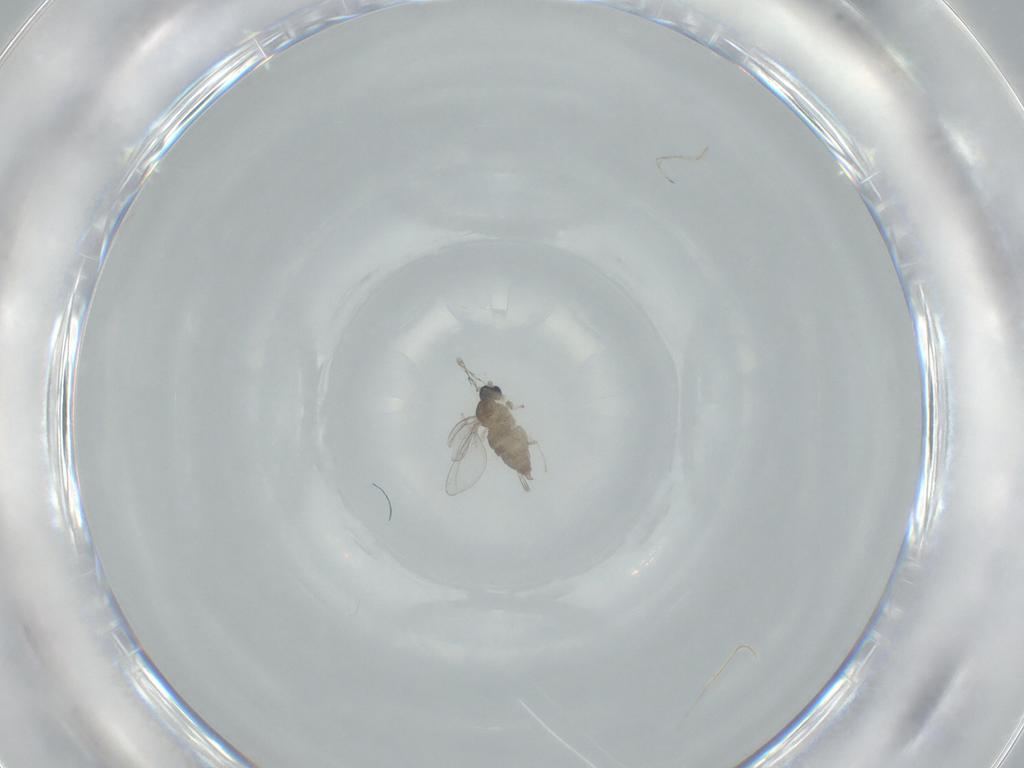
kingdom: Animalia
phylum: Arthropoda
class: Insecta
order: Diptera
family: Cecidomyiidae
